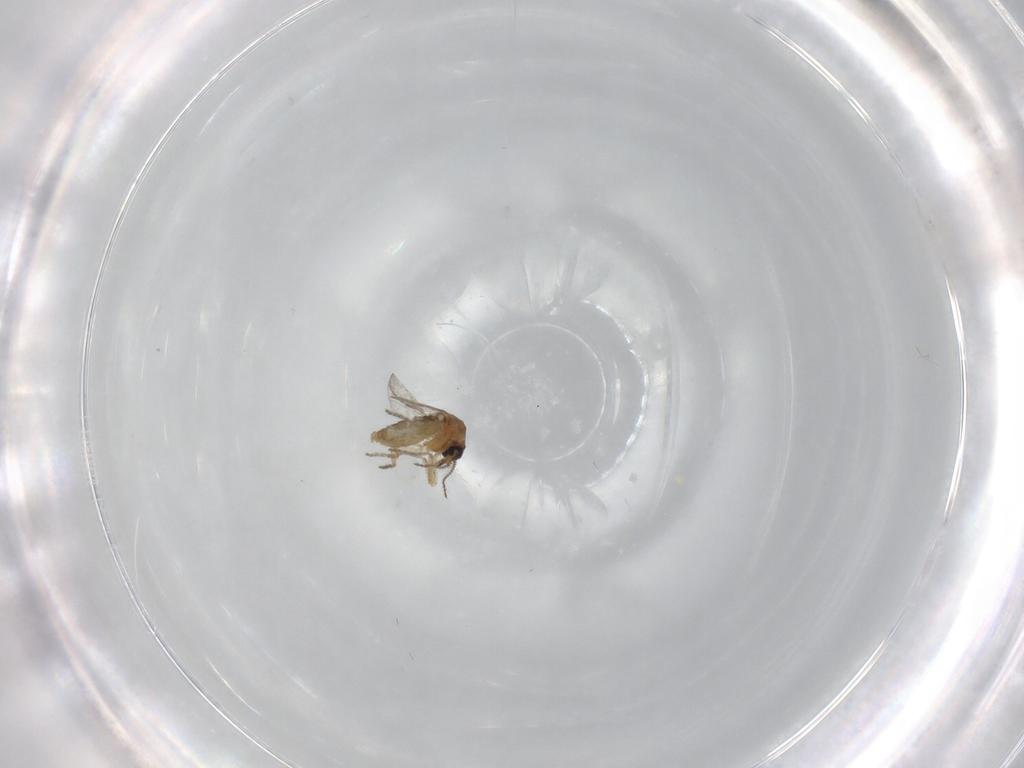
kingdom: Animalia
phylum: Arthropoda
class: Insecta
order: Diptera
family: Ceratopogonidae
